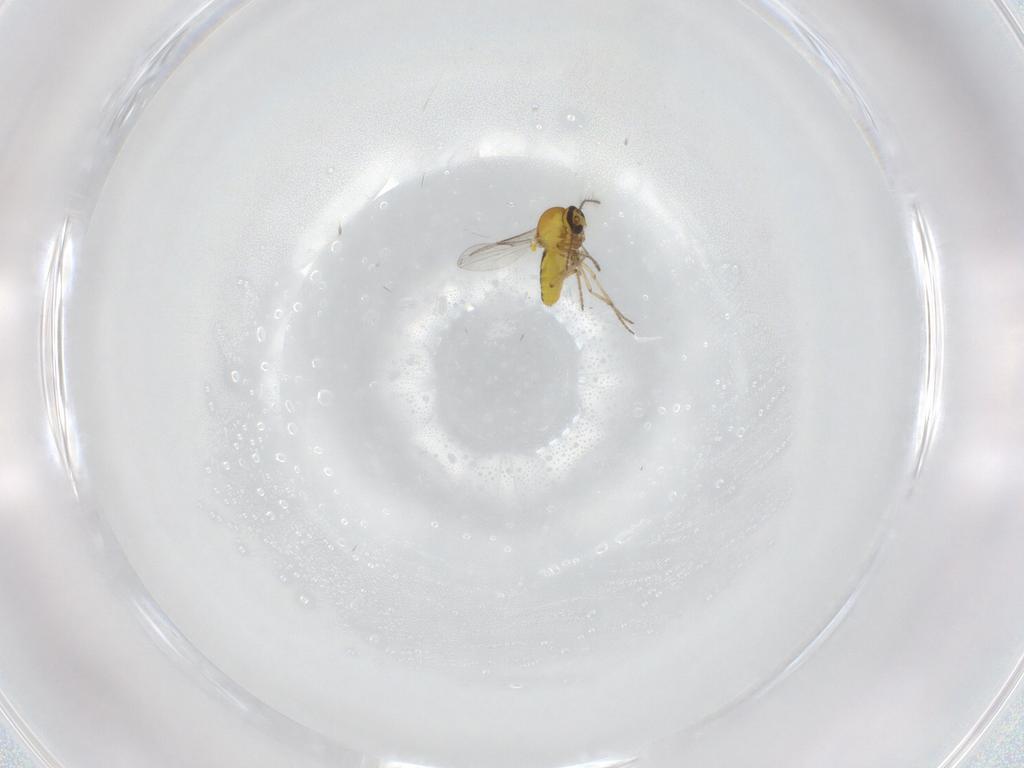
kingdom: Animalia
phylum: Arthropoda
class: Insecta
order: Diptera
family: Ceratopogonidae
